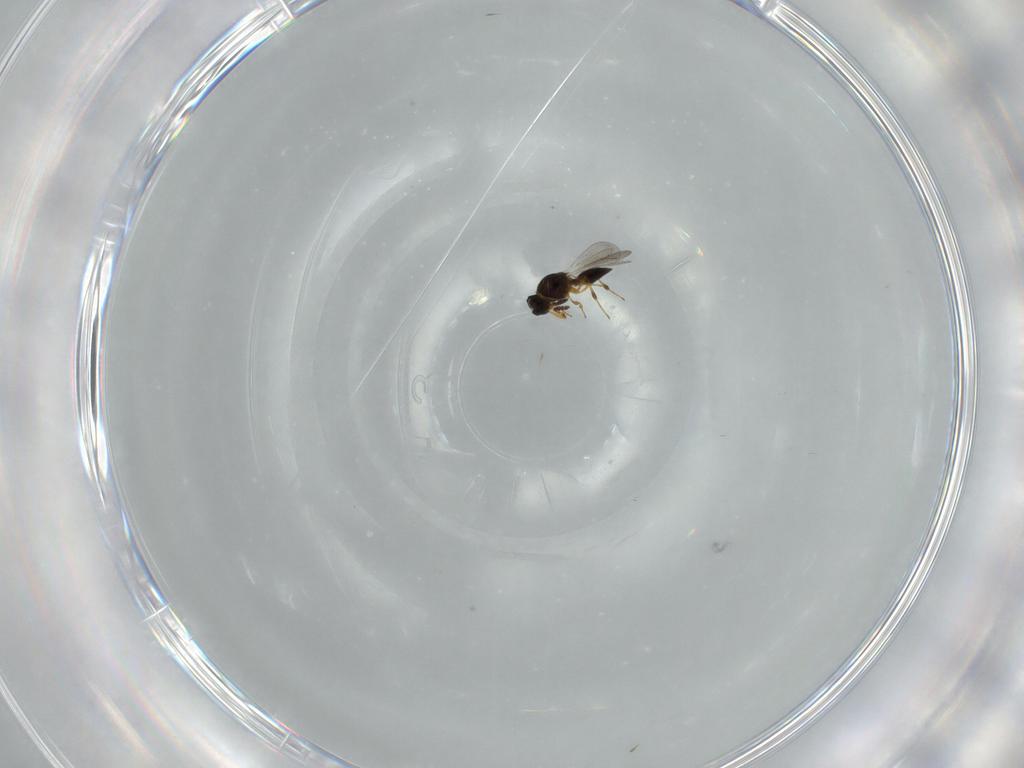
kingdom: Animalia
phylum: Arthropoda
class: Insecta
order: Hymenoptera
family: Platygastridae
